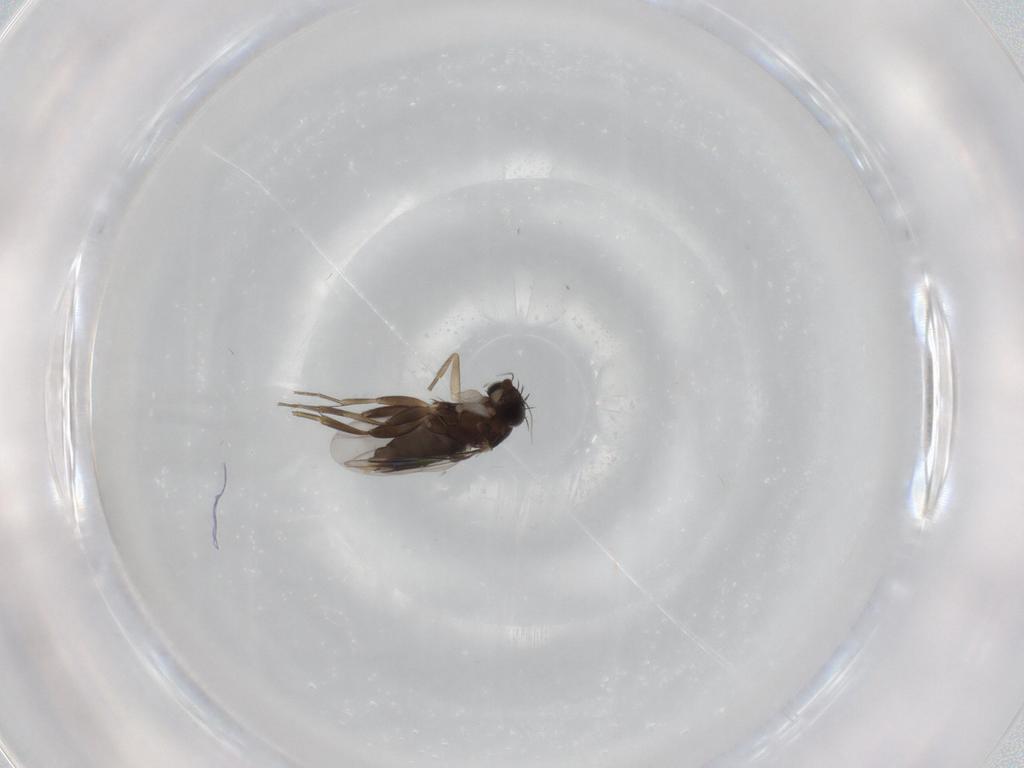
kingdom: Animalia
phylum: Arthropoda
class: Insecta
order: Diptera
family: Phoridae
